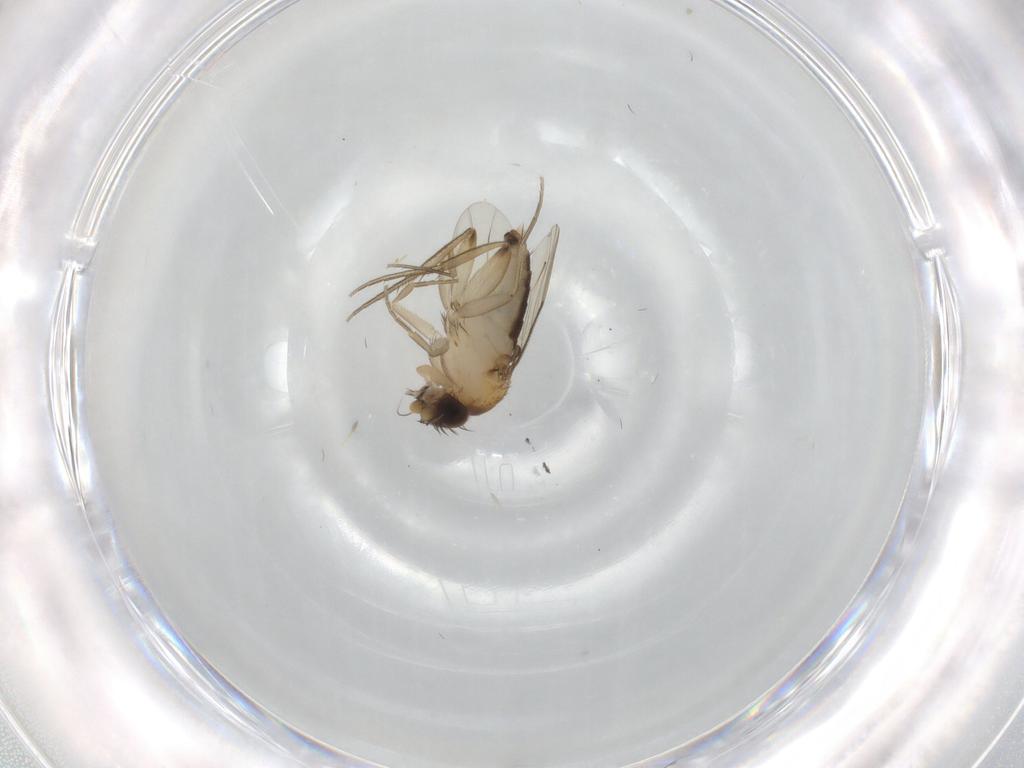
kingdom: Animalia
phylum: Arthropoda
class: Insecta
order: Diptera
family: Phoridae
